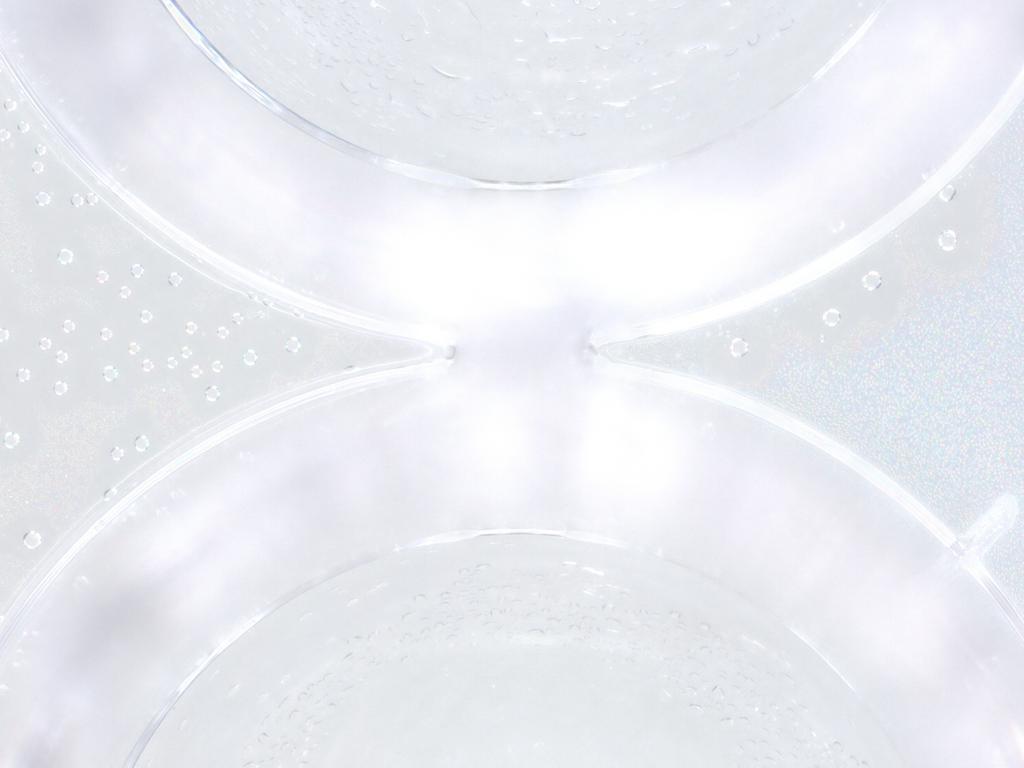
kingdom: Animalia
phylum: Arthropoda
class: Insecta
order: Diptera
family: Cecidomyiidae
